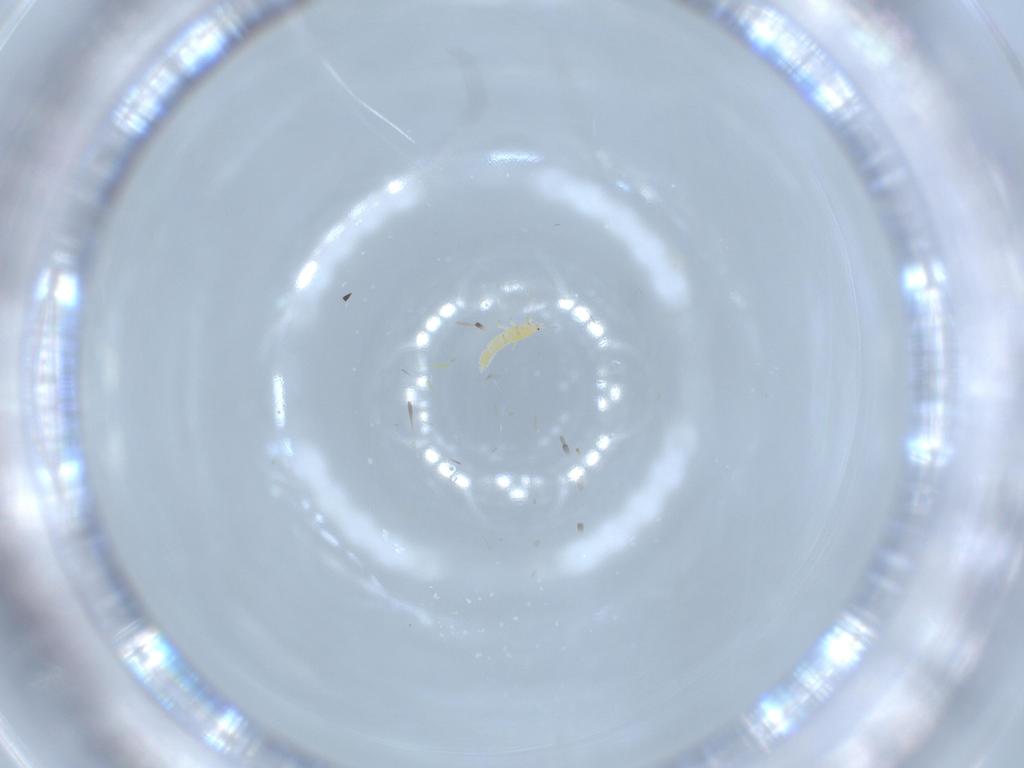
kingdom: Animalia
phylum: Arthropoda
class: Insecta
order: Thysanoptera
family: Thripidae
